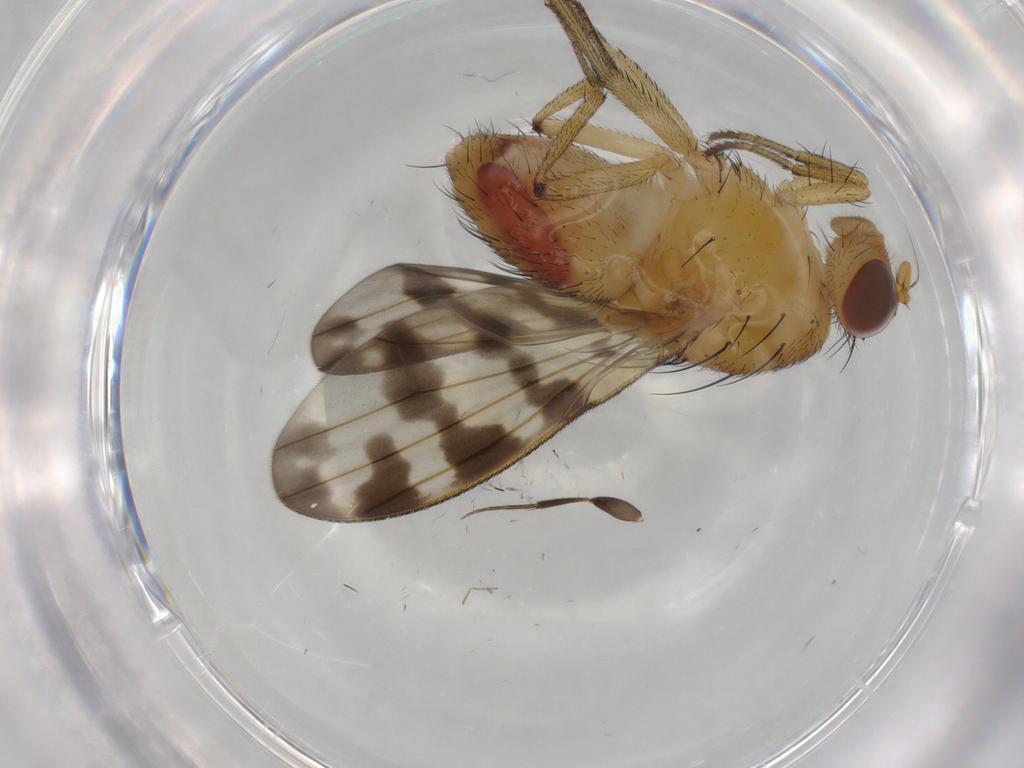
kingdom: Animalia
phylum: Arthropoda
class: Insecta
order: Diptera
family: Cecidomyiidae
